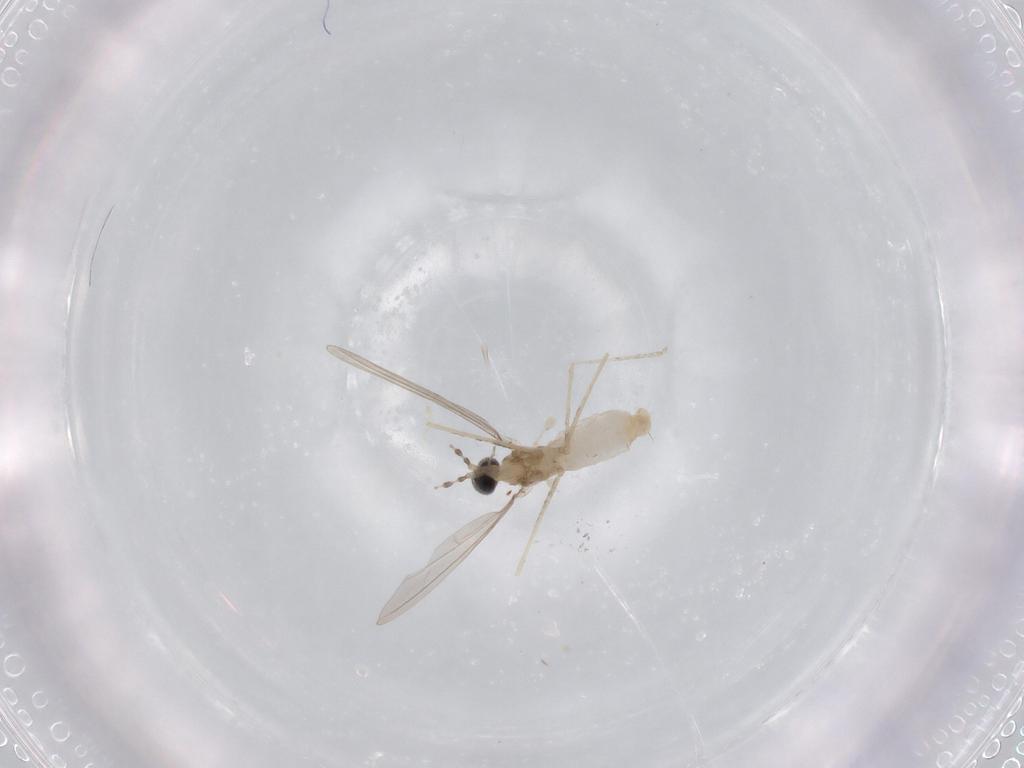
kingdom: Animalia
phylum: Arthropoda
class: Insecta
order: Diptera
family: Cecidomyiidae
